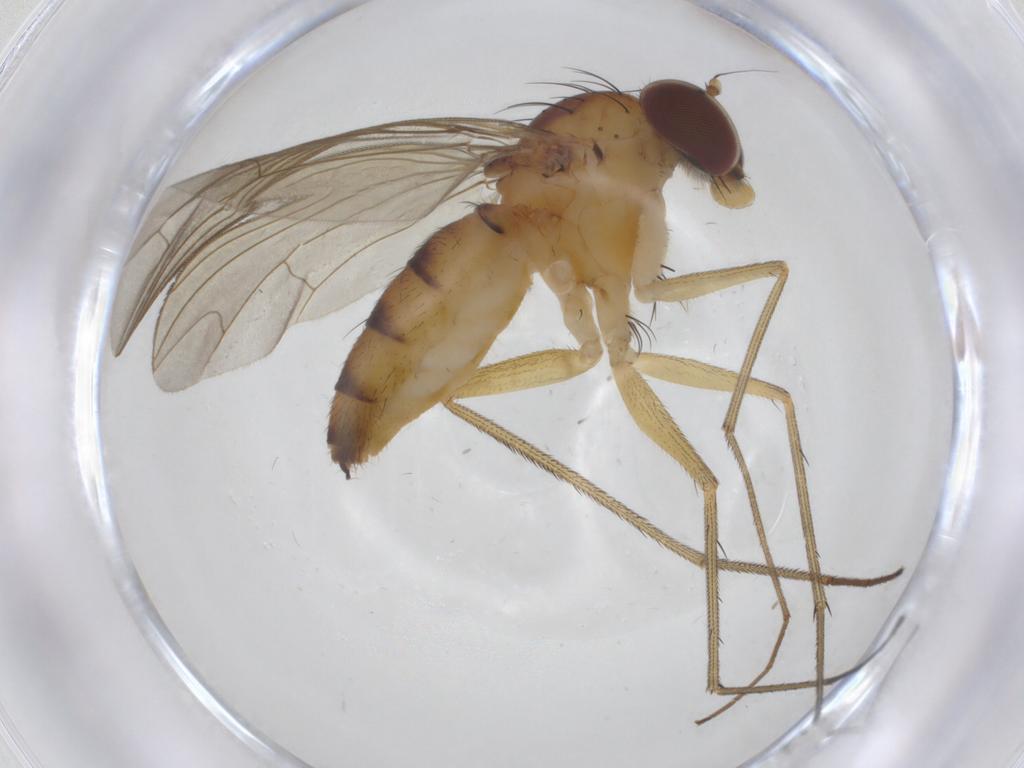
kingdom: Animalia
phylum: Arthropoda
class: Insecta
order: Diptera
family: Dolichopodidae
